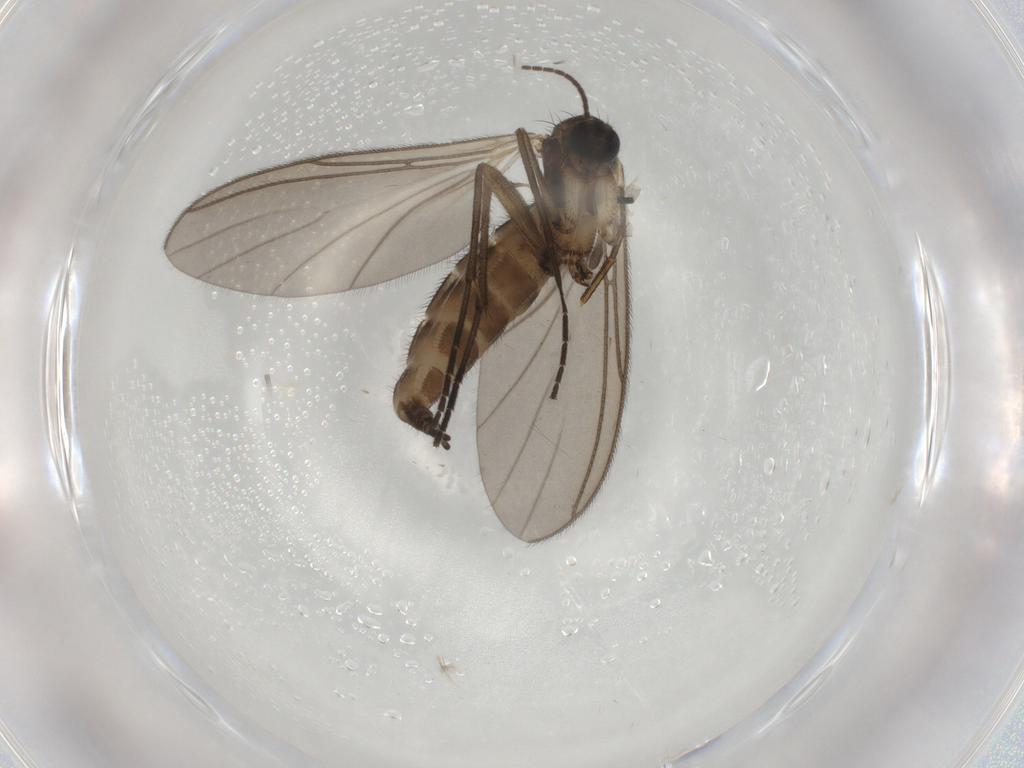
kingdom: Animalia
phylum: Arthropoda
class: Insecta
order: Diptera
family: Sciaridae
